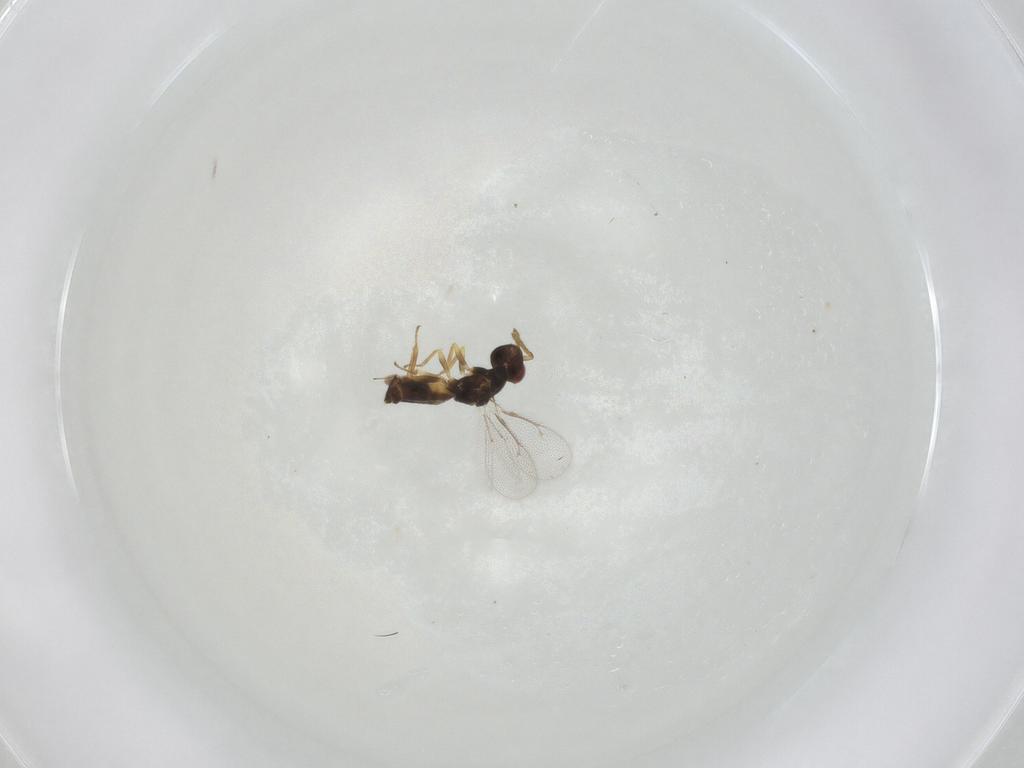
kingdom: Animalia
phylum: Arthropoda
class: Insecta
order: Hymenoptera
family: Eulophidae
